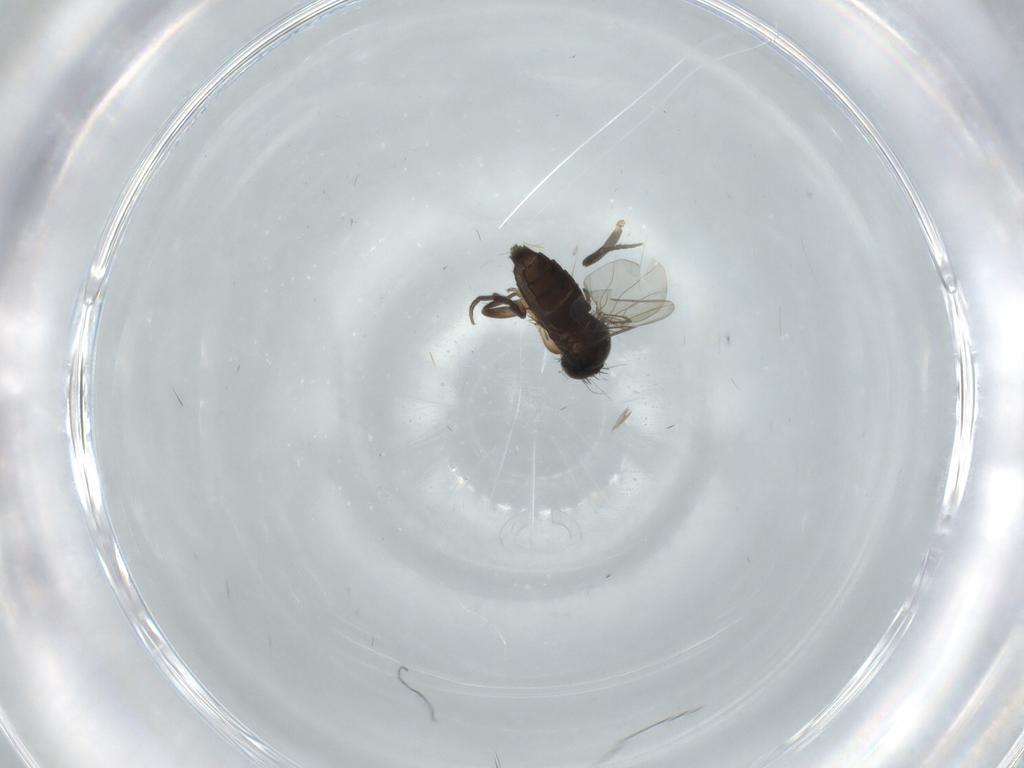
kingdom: Animalia
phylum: Arthropoda
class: Insecta
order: Diptera
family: Phoridae
